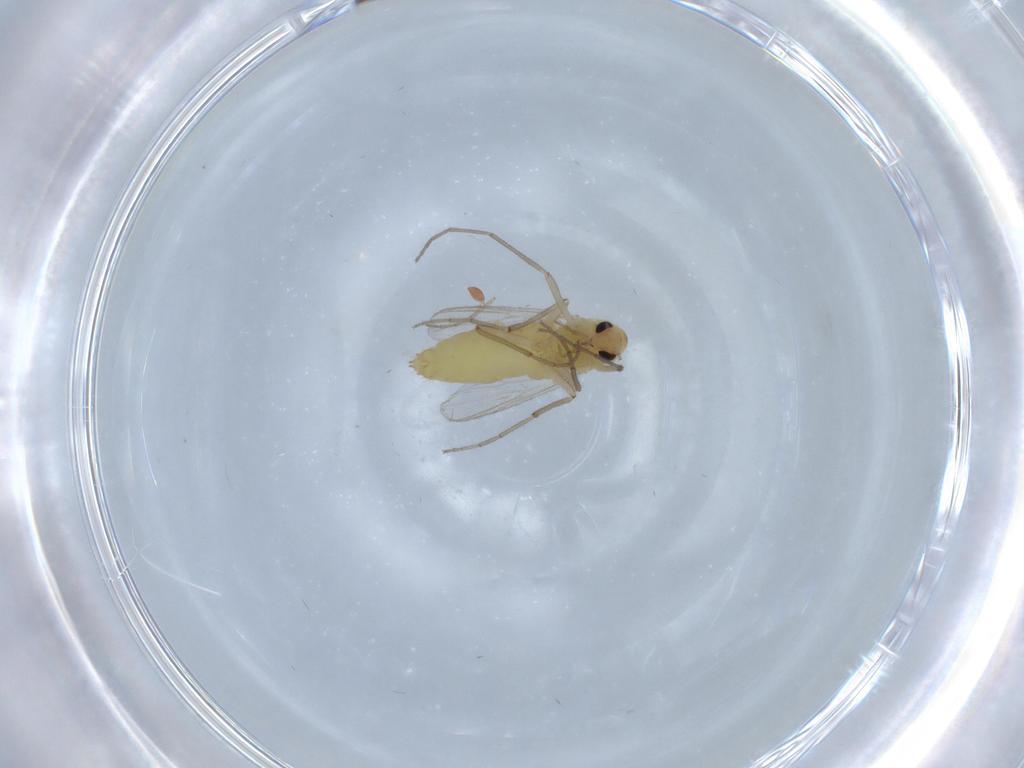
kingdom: Animalia
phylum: Arthropoda
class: Insecta
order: Diptera
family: Chironomidae
